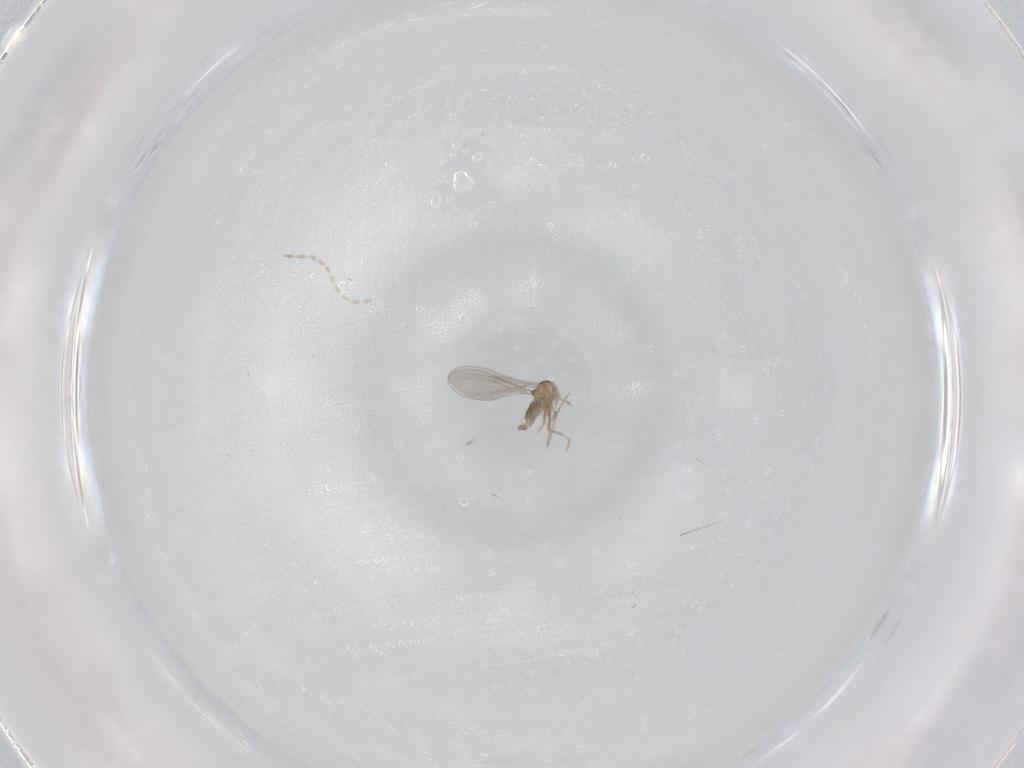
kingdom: Animalia
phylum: Arthropoda
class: Insecta
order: Diptera
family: Cecidomyiidae
